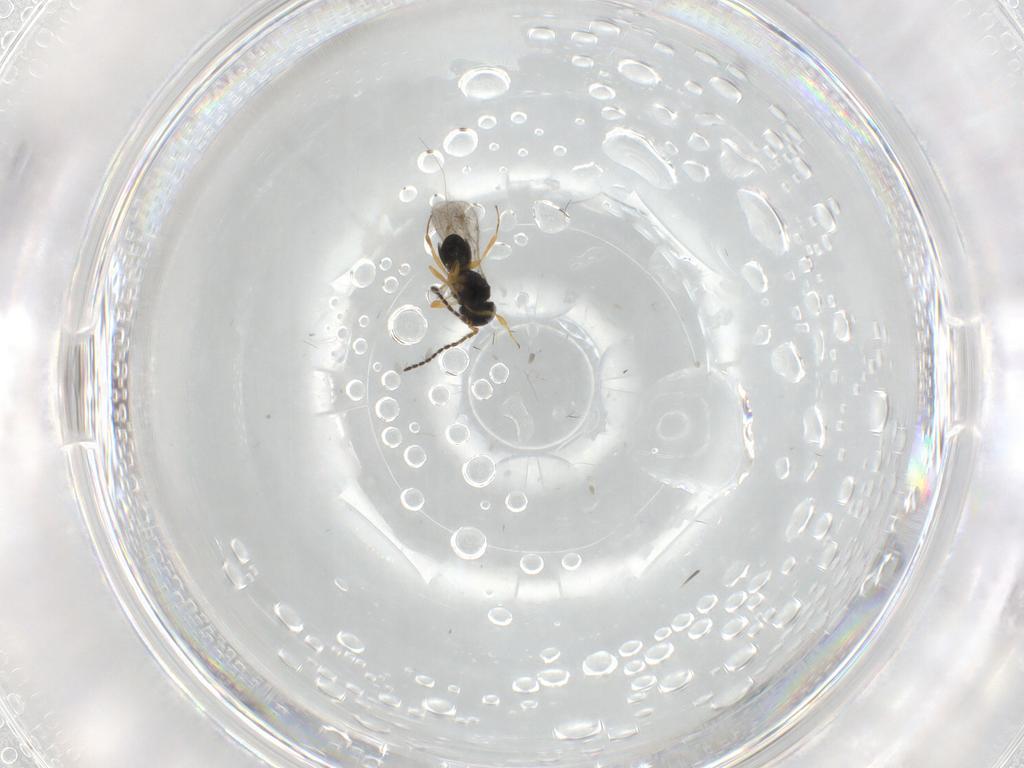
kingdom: Animalia
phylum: Arthropoda
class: Insecta
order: Hymenoptera
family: Scelionidae
